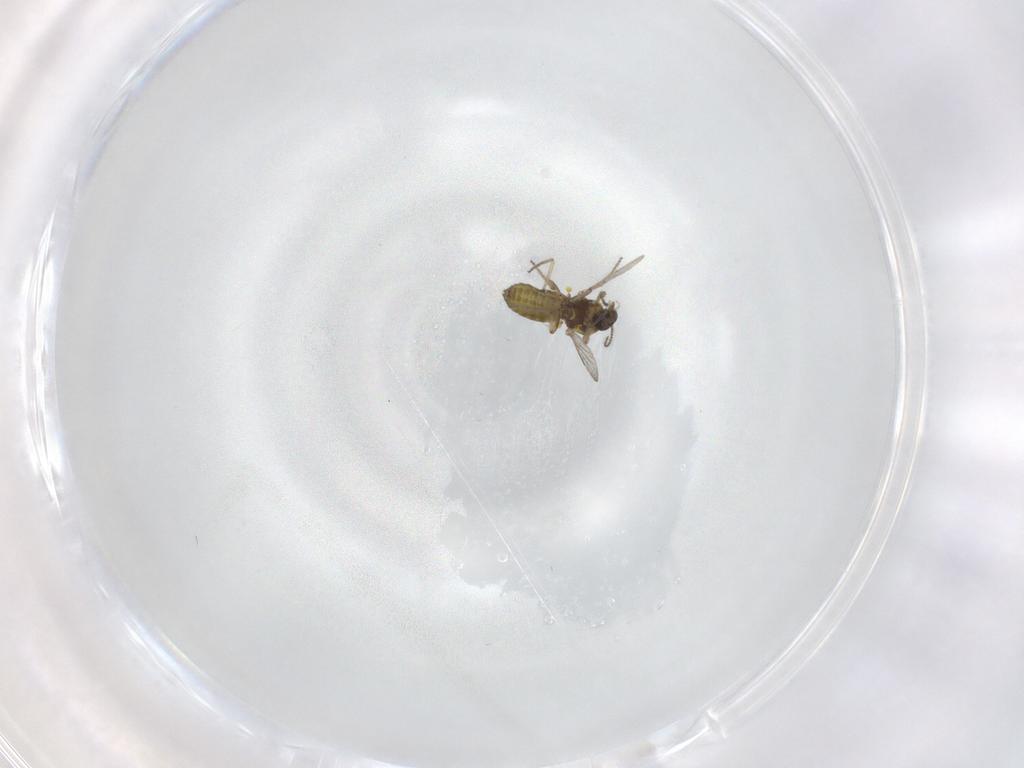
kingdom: Animalia
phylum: Arthropoda
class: Insecta
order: Diptera
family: Ceratopogonidae
